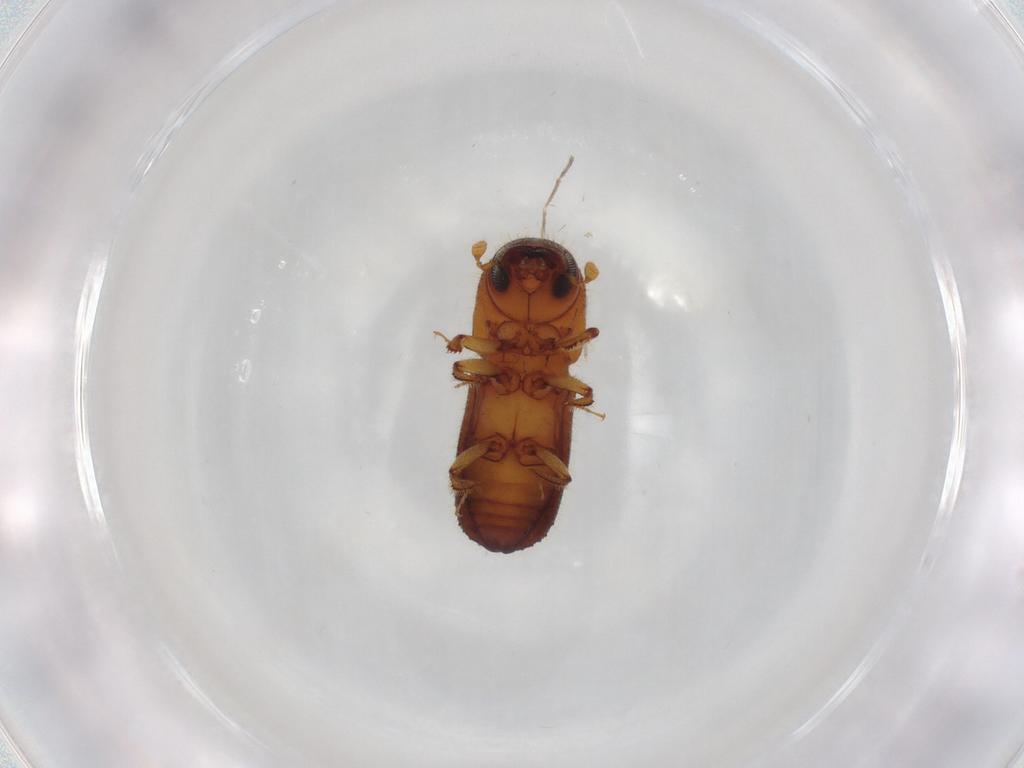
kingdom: Animalia
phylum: Arthropoda
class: Insecta
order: Coleoptera
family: Curculionidae
